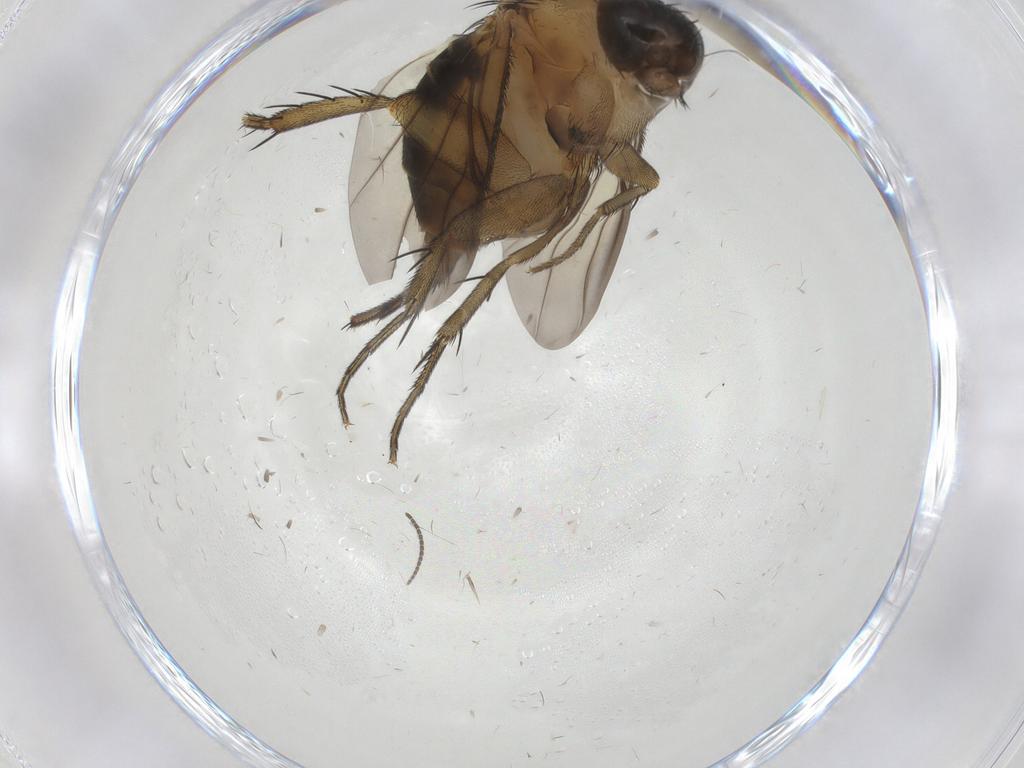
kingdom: Animalia
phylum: Arthropoda
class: Insecta
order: Diptera
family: Phoridae
